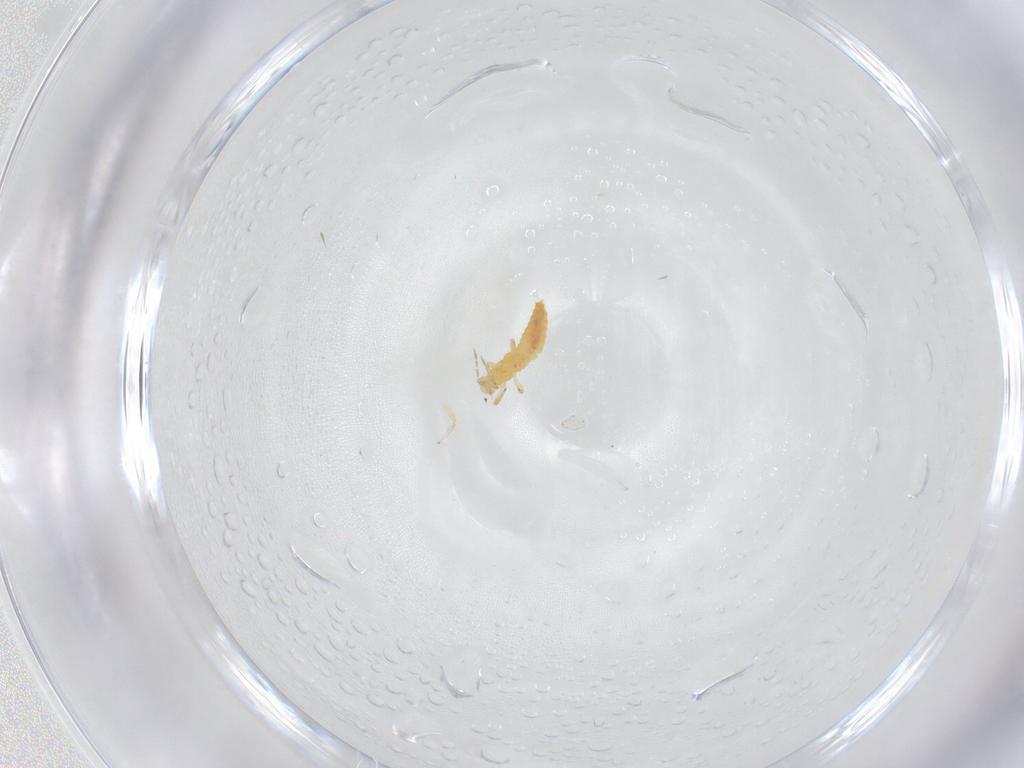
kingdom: Animalia
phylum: Arthropoda
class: Insecta
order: Thysanoptera
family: Aeolothripidae
